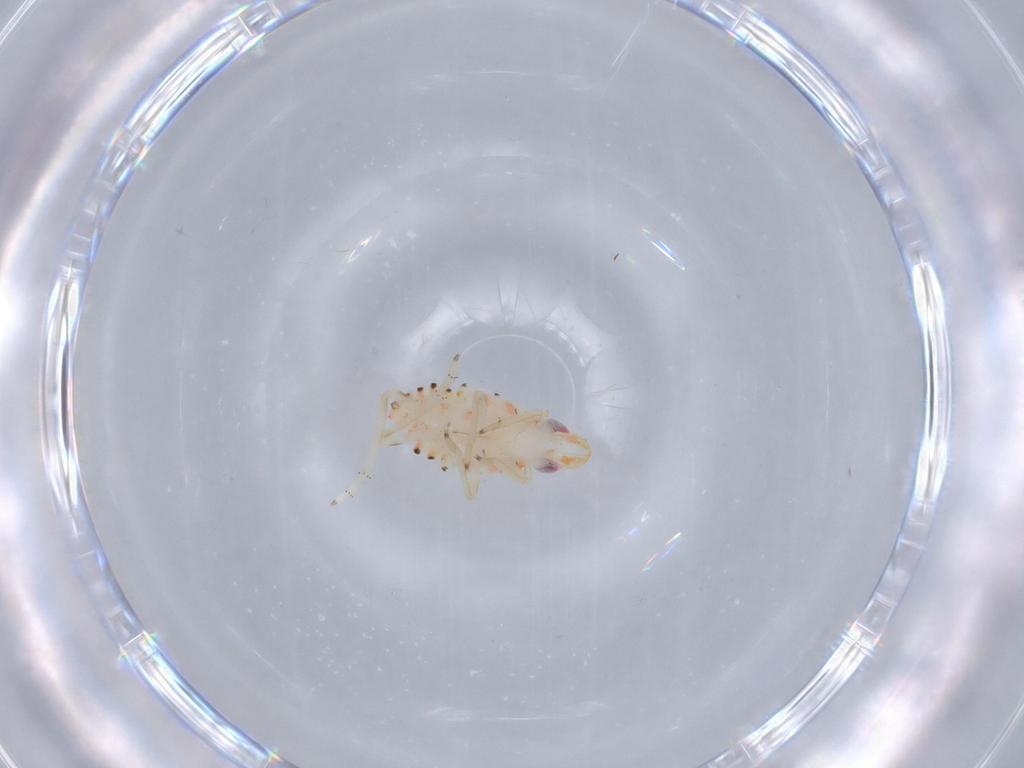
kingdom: Animalia
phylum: Arthropoda
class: Insecta
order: Hemiptera
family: Tropiduchidae
